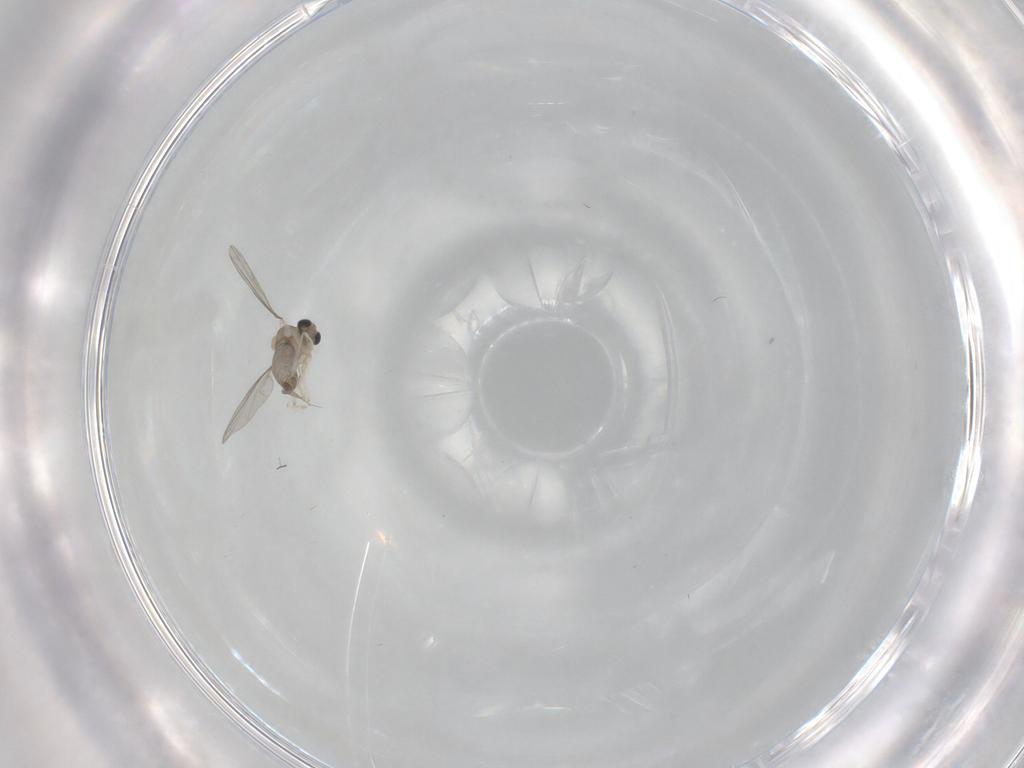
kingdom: Animalia
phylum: Arthropoda
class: Insecta
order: Diptera
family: Cecidomyiidae
